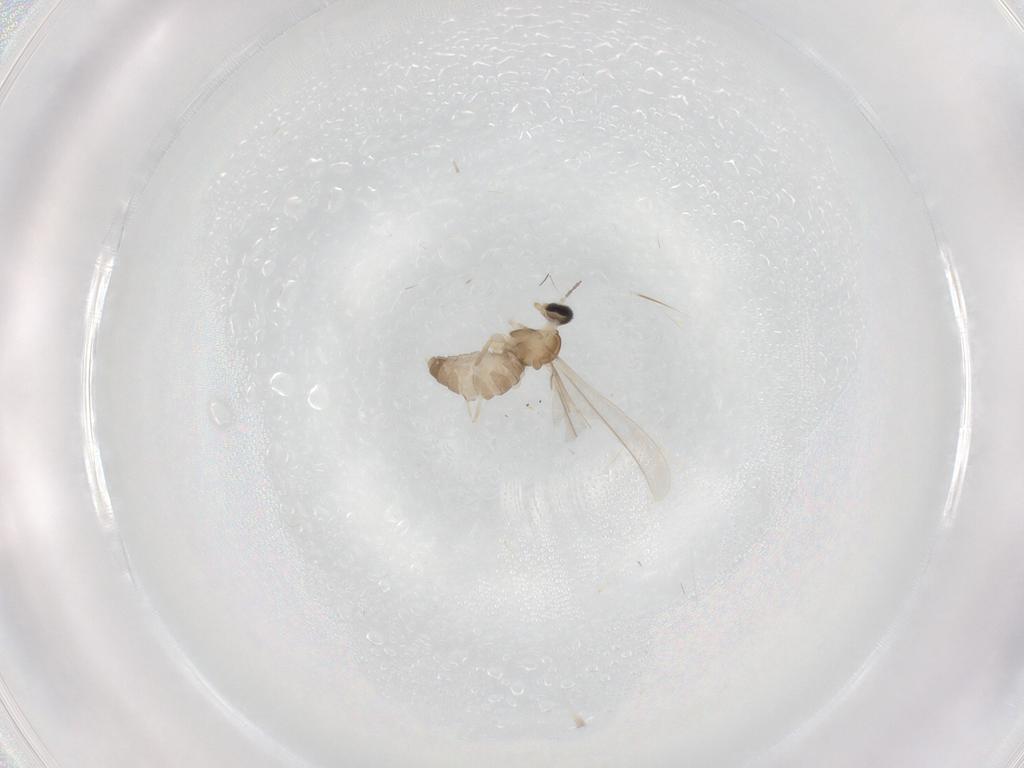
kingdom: Animalia
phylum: Arthropoda
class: Insecta
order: Diptera
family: Cecidomyiidae
